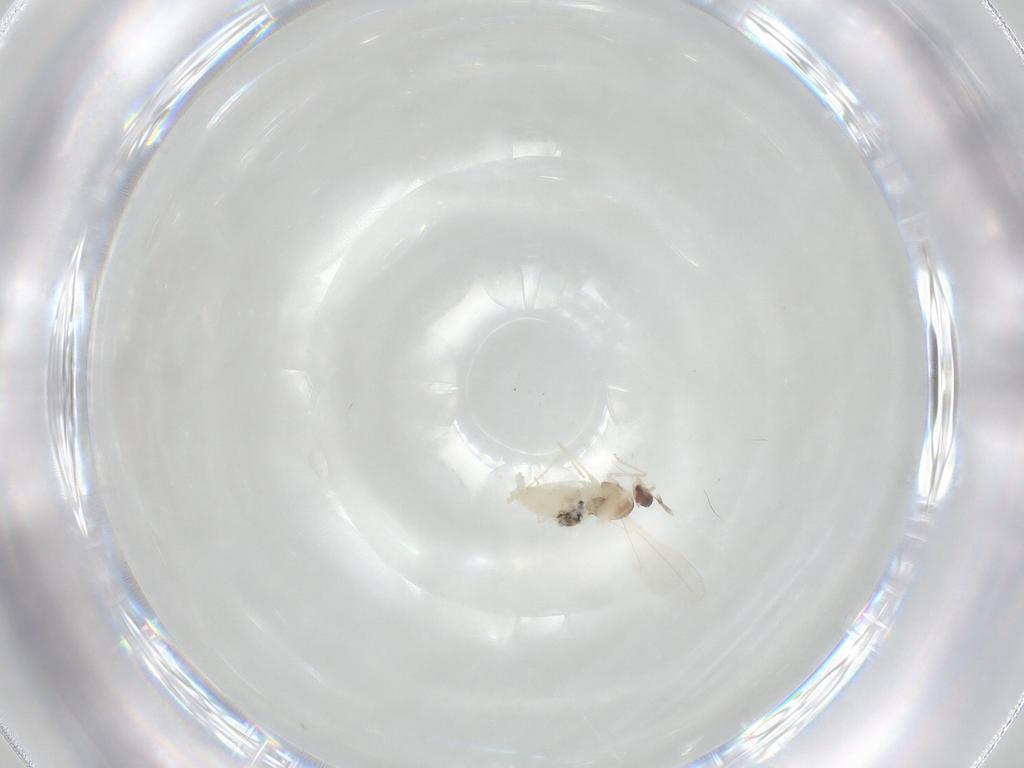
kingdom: Animalia
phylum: Arthropoda
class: Insecta
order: Diptera
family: Cecidomyiidae
